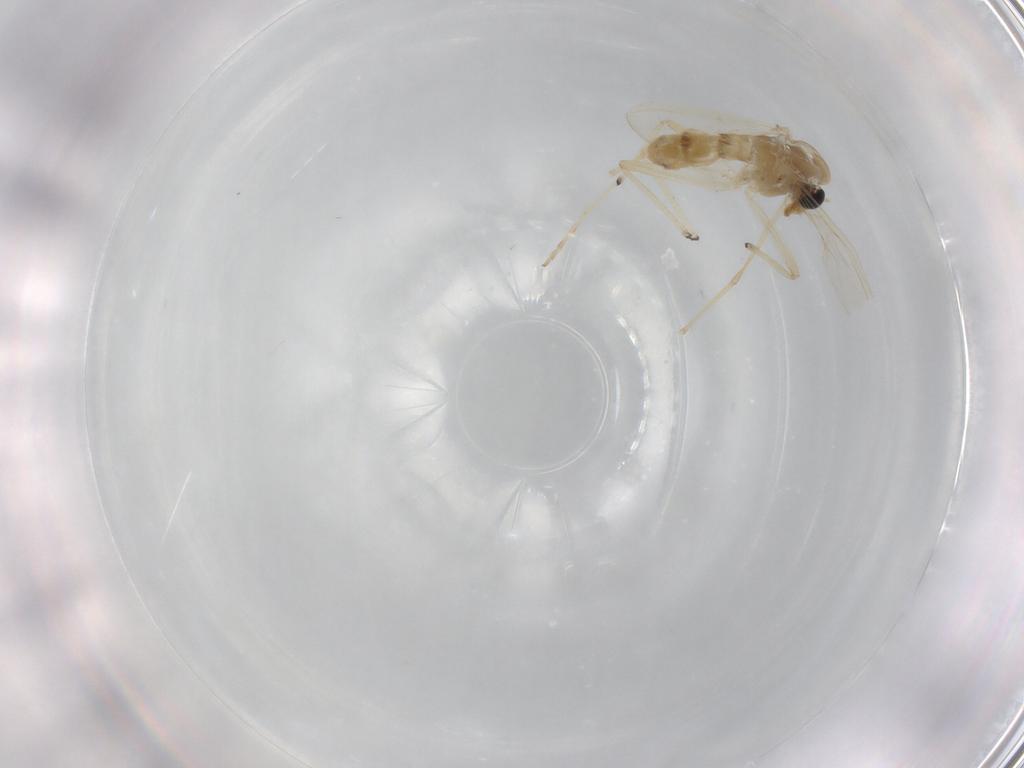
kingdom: Animalia
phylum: Arthropoda
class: Insecta
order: Diptera
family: Chironomidae
